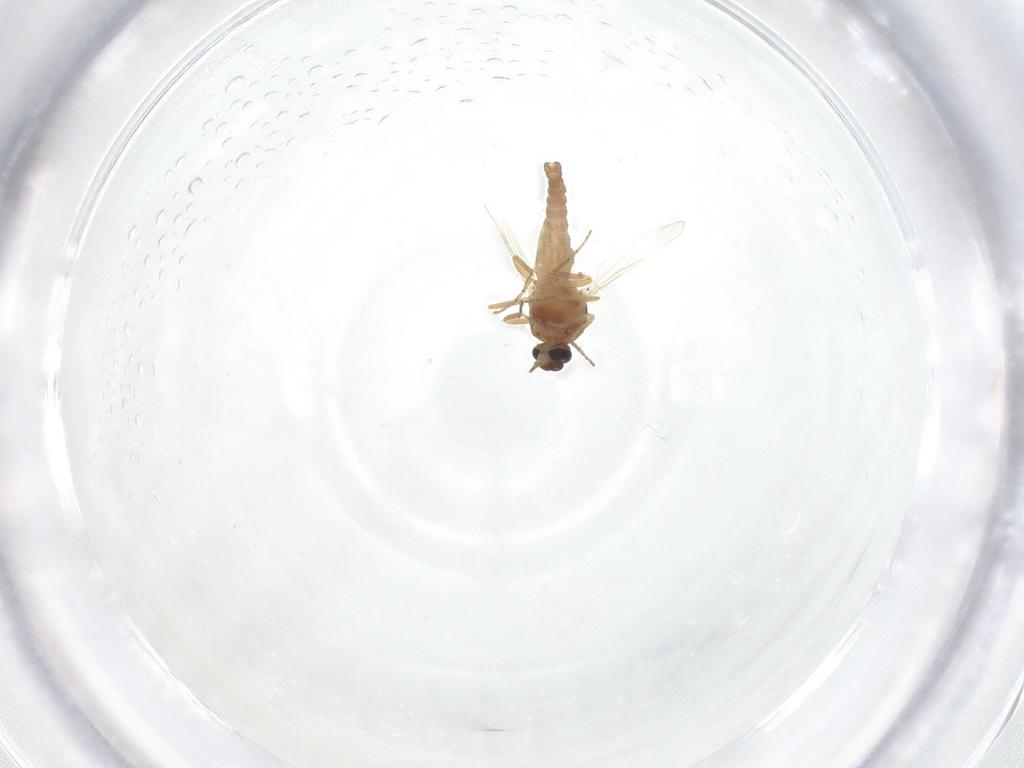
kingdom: Animalia
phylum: Arthropoda
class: Insecta
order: Diptera
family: Ceratopogonidae
